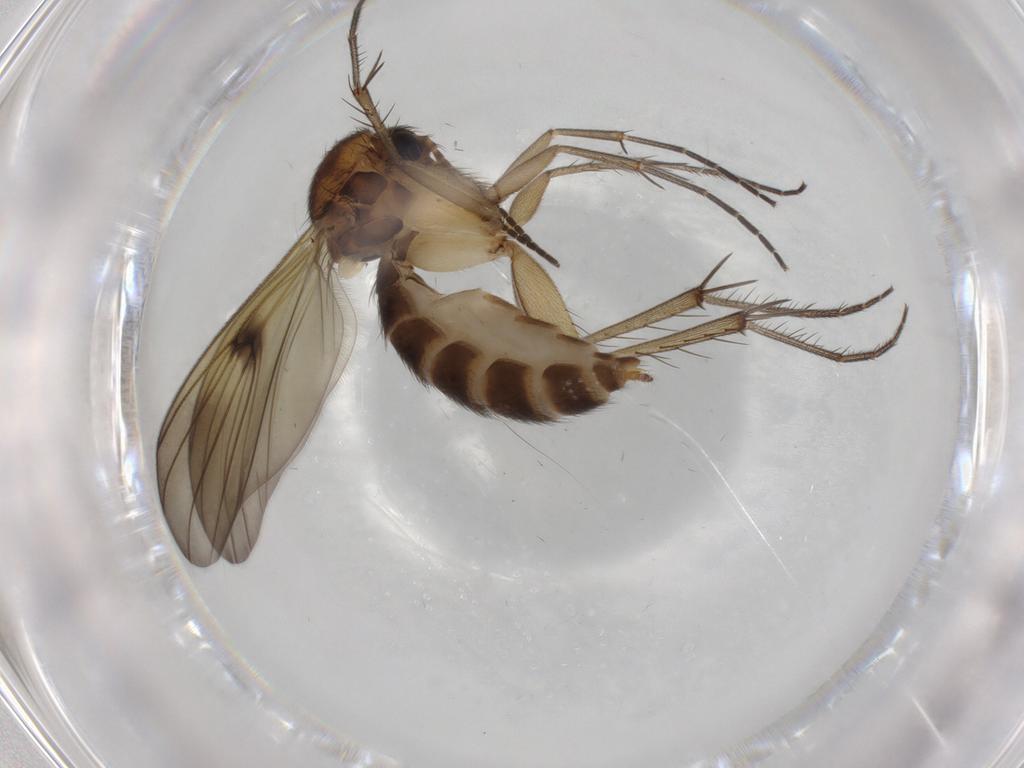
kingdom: Animalia
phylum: Arthropoda
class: Insecta
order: Diptera
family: Mycetophilidae
